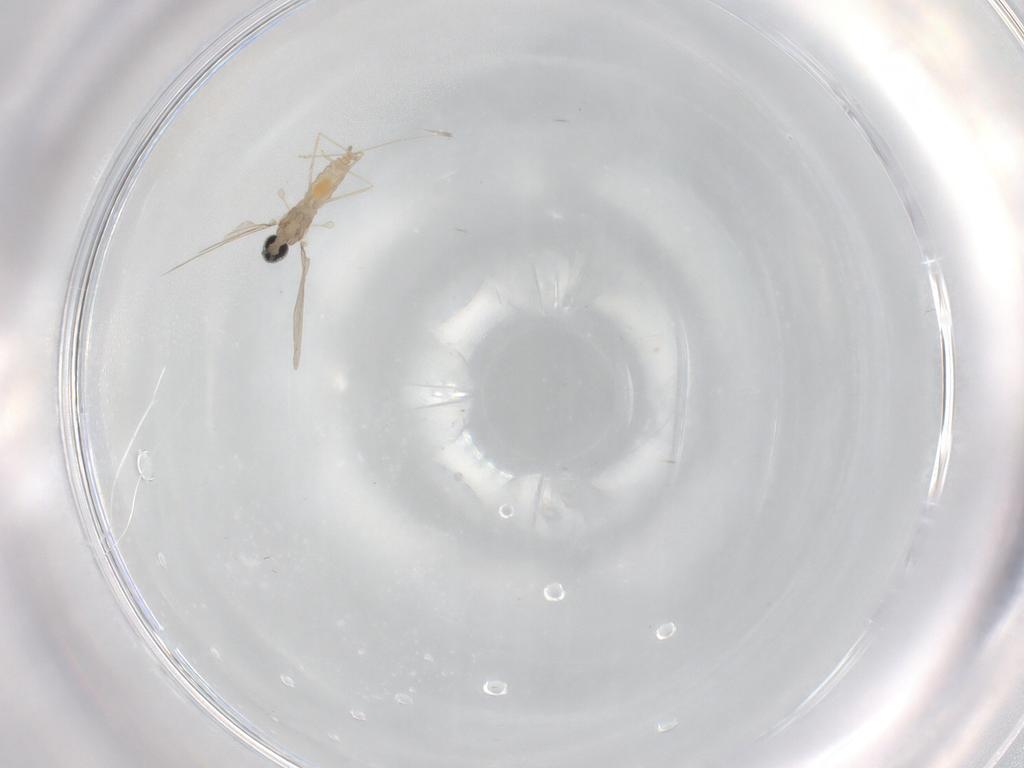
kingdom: Animalia
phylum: Arthropoda
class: Insecta
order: Diptera
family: Cecidomyiidae
